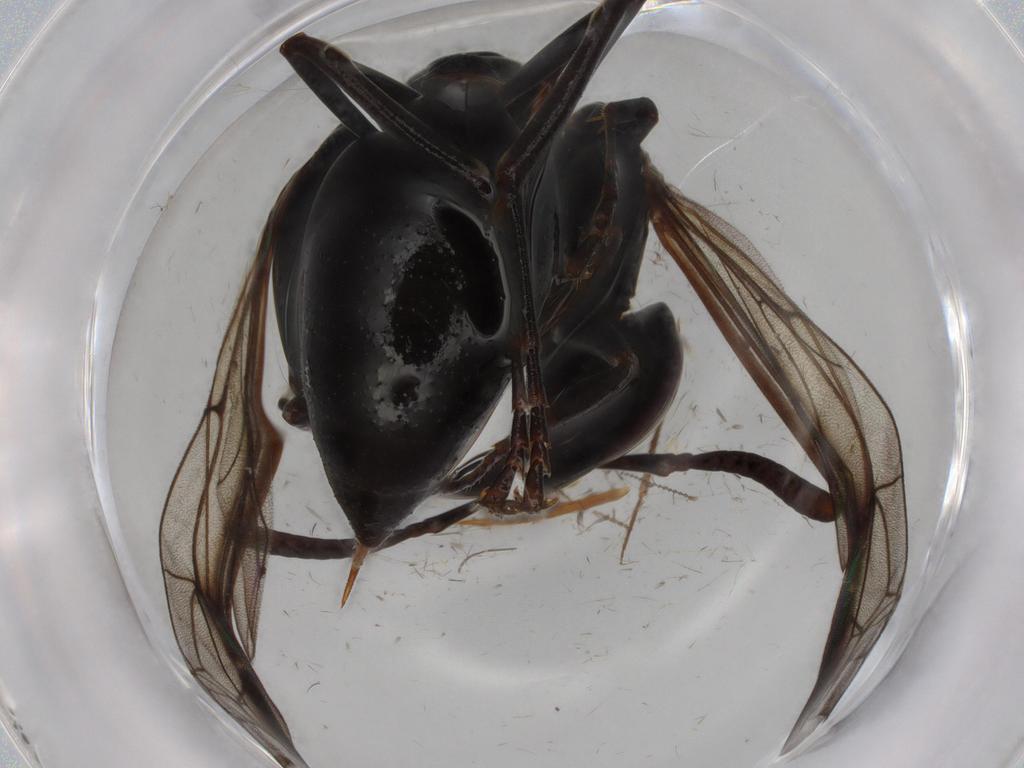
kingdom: Animalia
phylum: Arthropoda
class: Insecta
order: Hymenoptera
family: Vespidae
